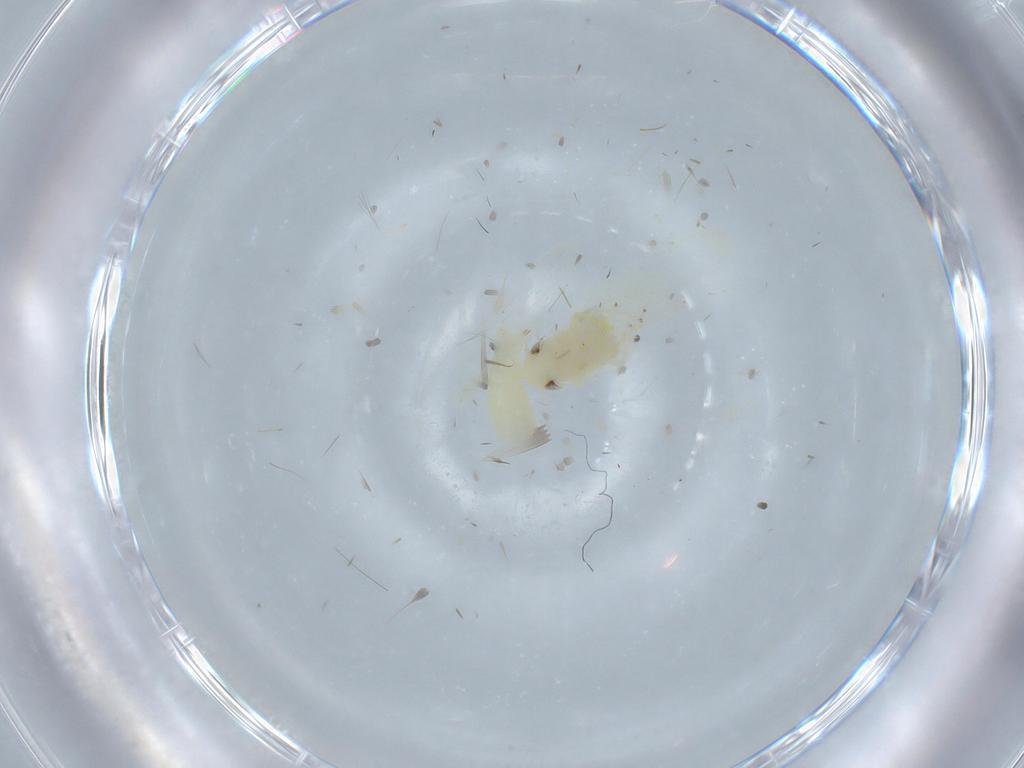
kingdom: Animalia
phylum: Arthropoda
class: Insecta
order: Hemiptera
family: Cicadellidae
